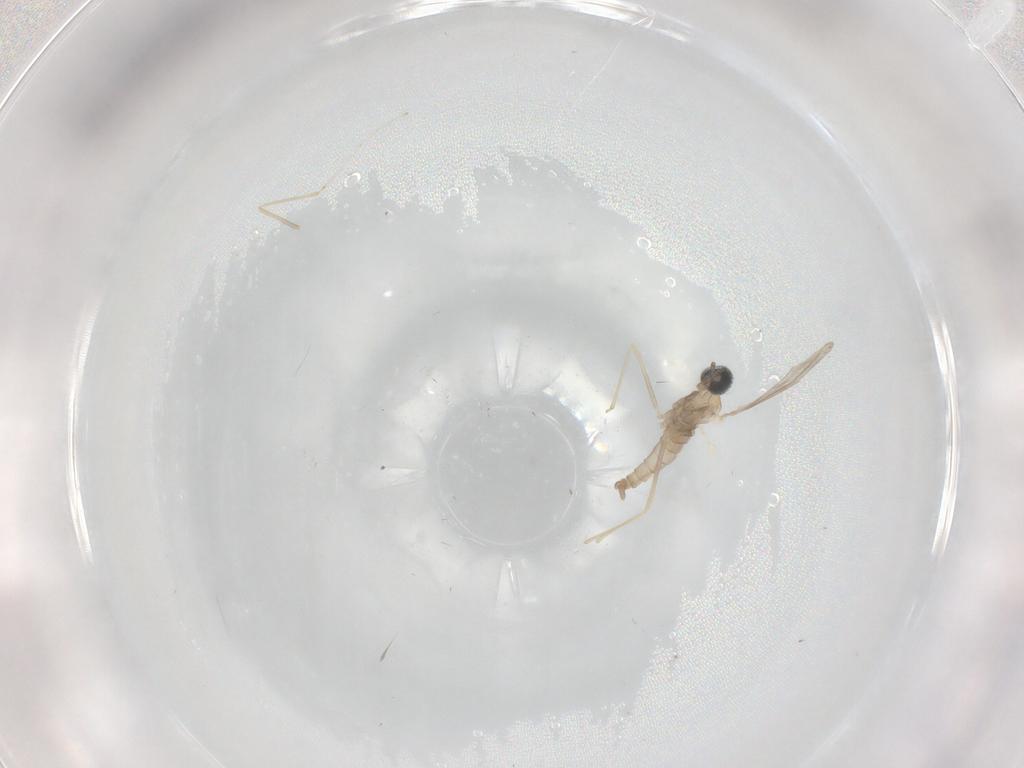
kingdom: Animalia
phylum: Arthropoda
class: Insecta
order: Diptera
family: Cecidomyiidae
